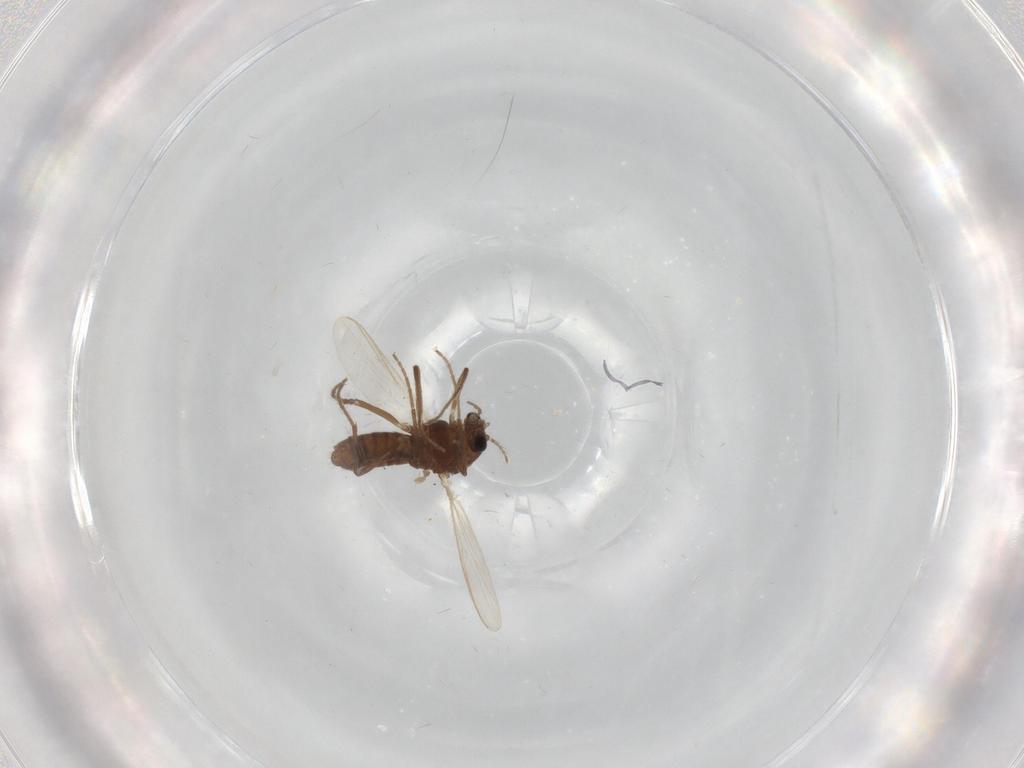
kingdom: Animalia
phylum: Arthropoda
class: Insecta
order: Diptera
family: Chironomidae
